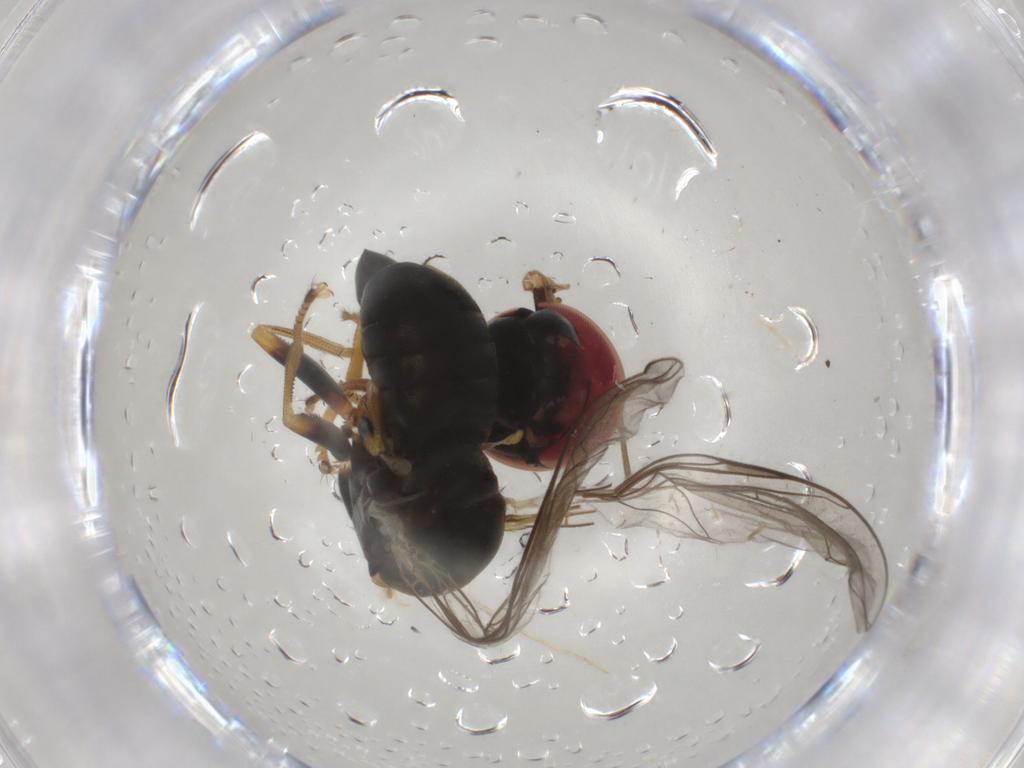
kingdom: Animalia
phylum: Arthropoda
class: Insecta
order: Diptera
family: Pipunculidae
